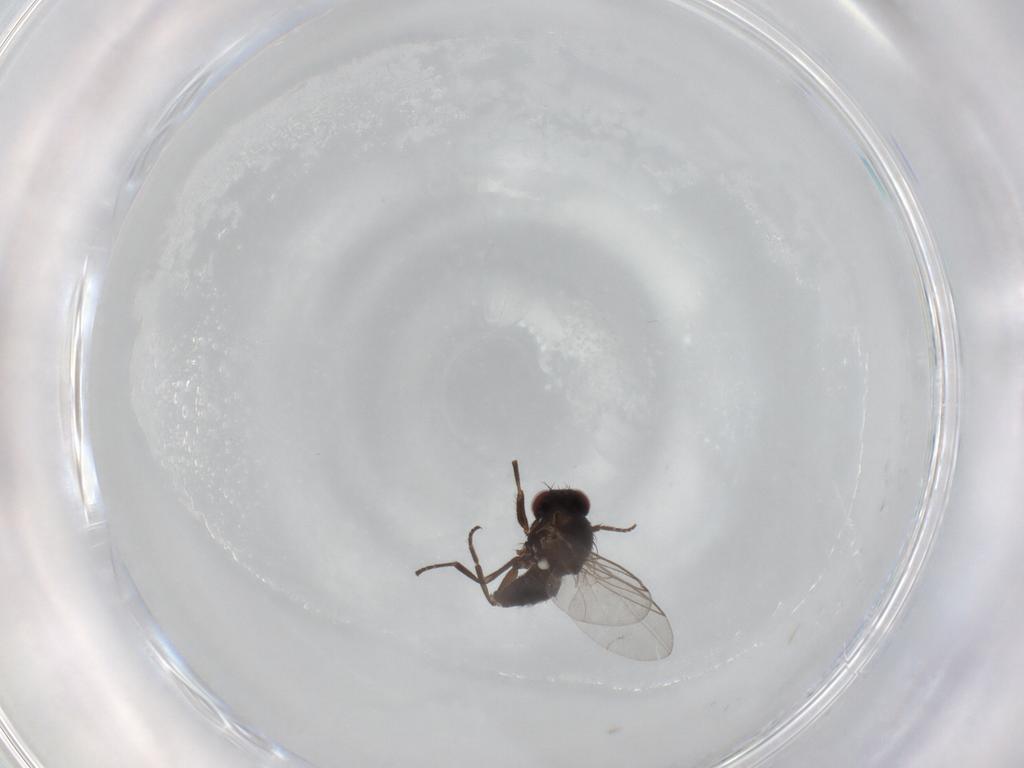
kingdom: Animalia
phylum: Arthropoda
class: Insecta
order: Diptera
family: Agromyzidae
